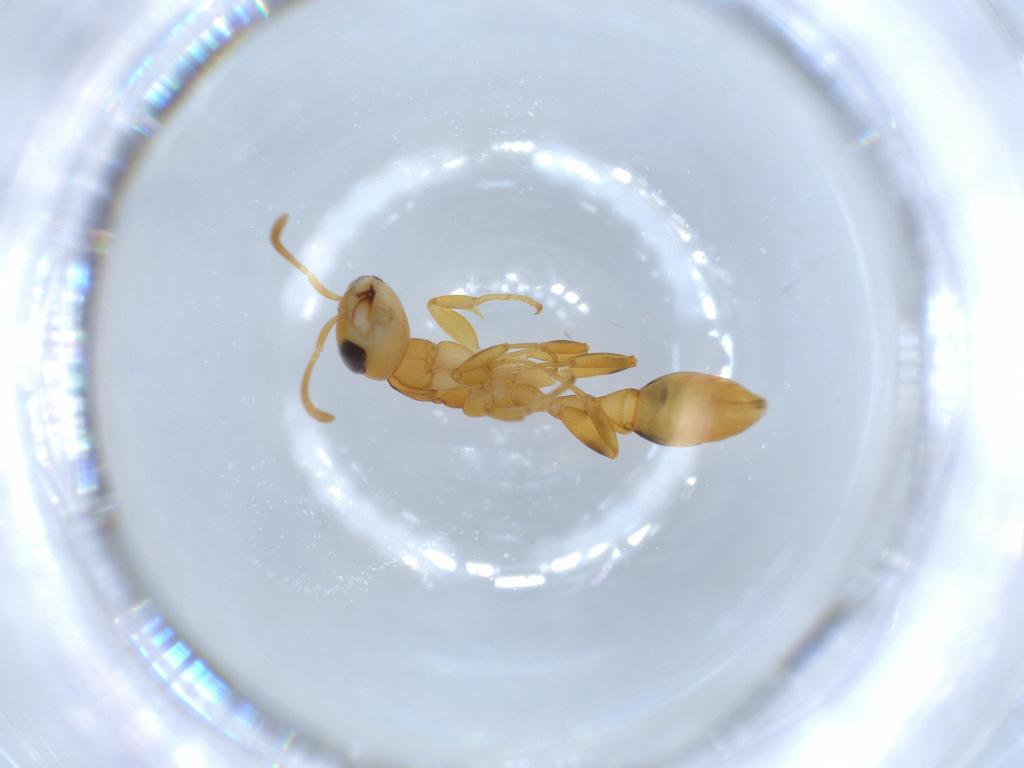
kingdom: Animalia
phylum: Arthropoda
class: Insecta
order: Hymenoptera
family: Formicidae
